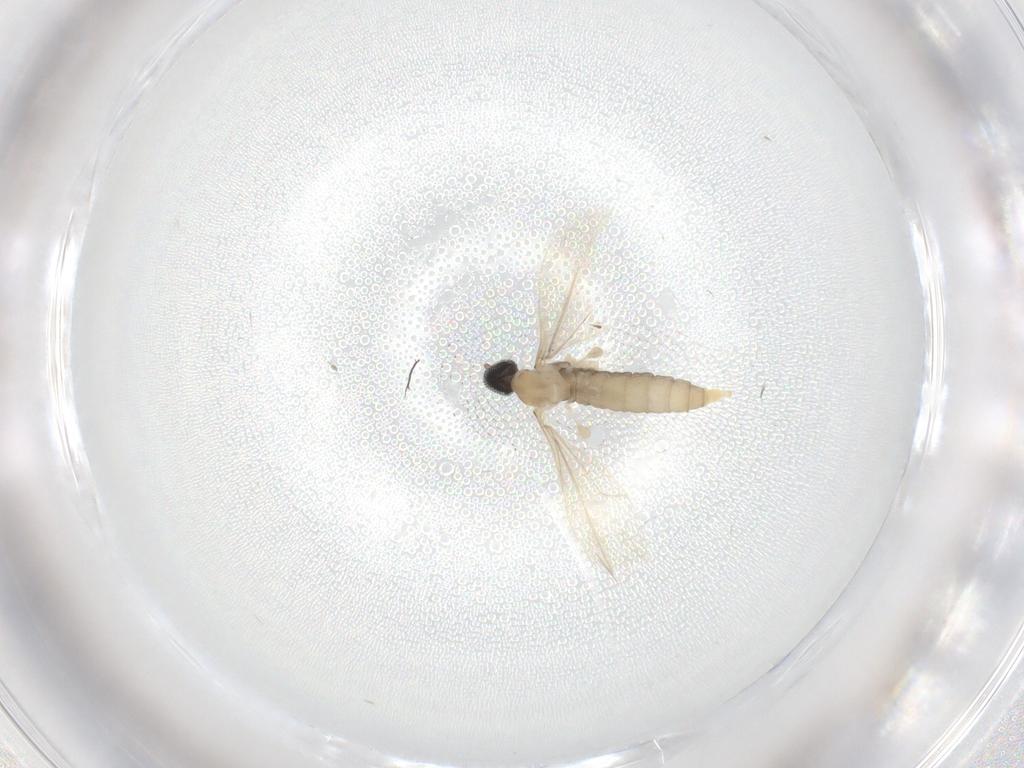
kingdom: Animalia
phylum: Arthropoda
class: Insecta
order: Diptera
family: Cecidomyiidae
